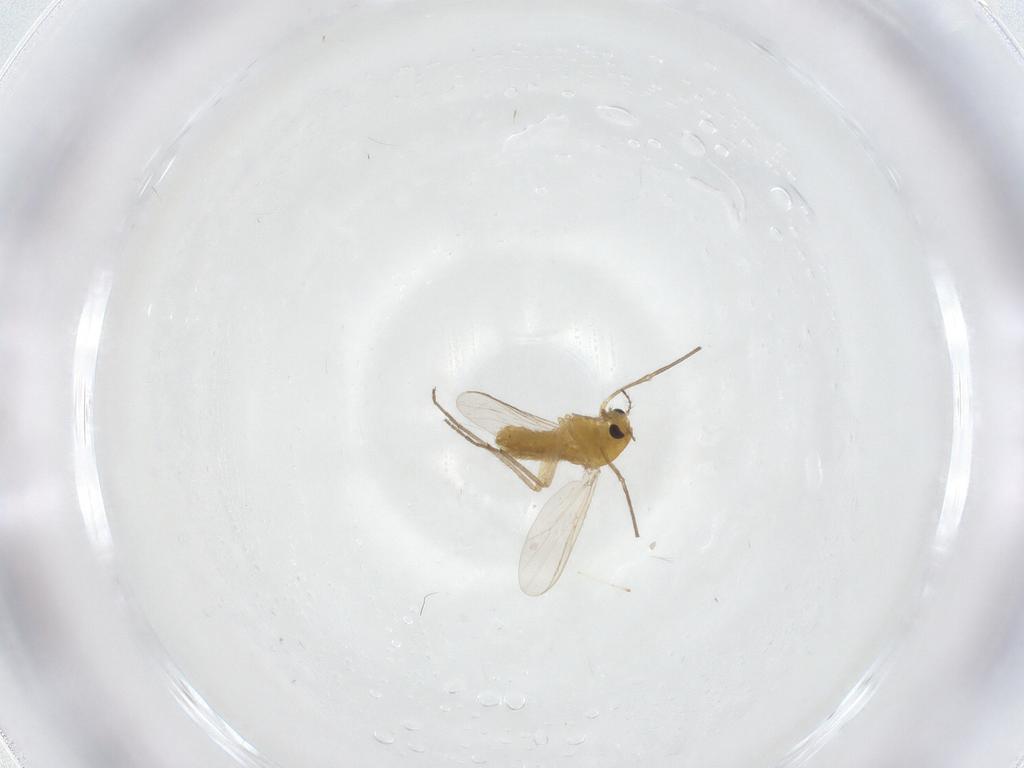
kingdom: Animalia
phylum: Arthropoda
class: Insecta
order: Diptera
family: Chironomidae
